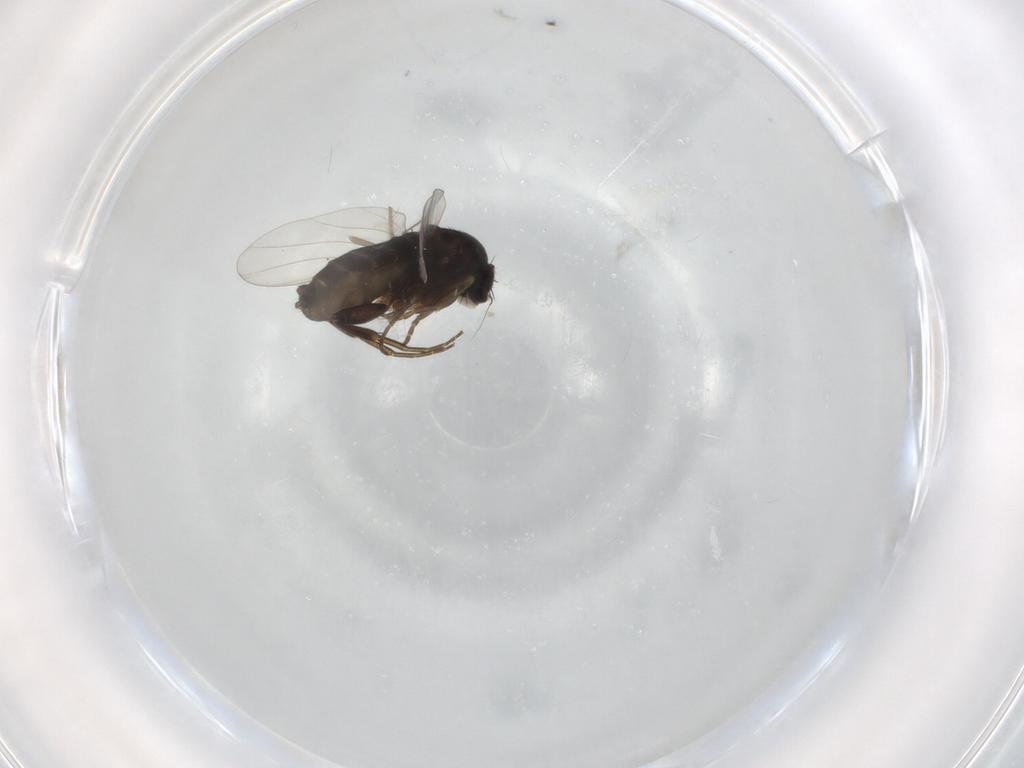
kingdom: Animalia
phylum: Arthropoda
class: Insecta
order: Diptera
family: Phoridae
